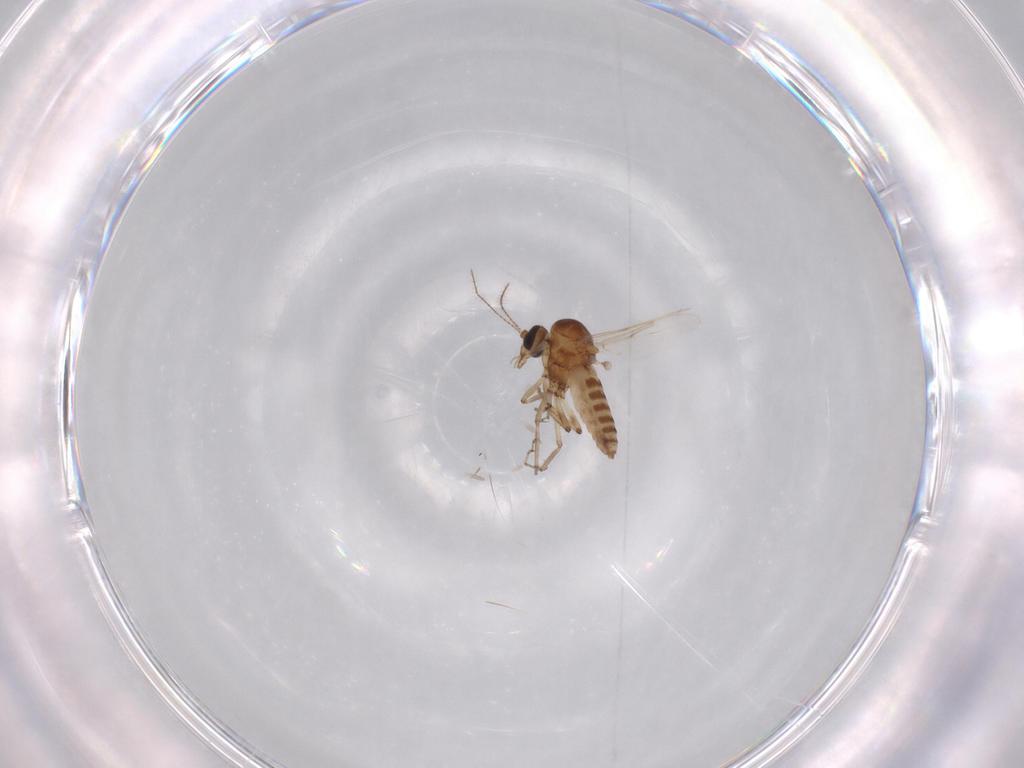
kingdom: Animalia
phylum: Arthropoda
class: Insecta
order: Diptera
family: Ceratopogonidae
